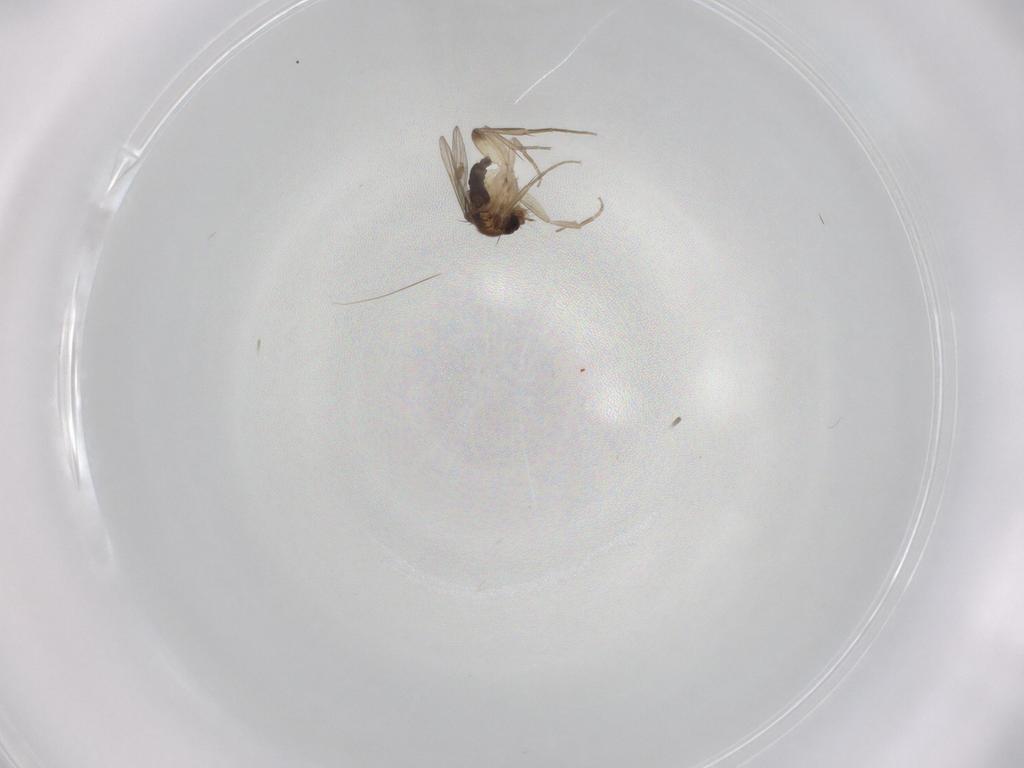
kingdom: Animalia
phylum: Arthropoda
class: Insecta
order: Diptera
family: Phoridae
